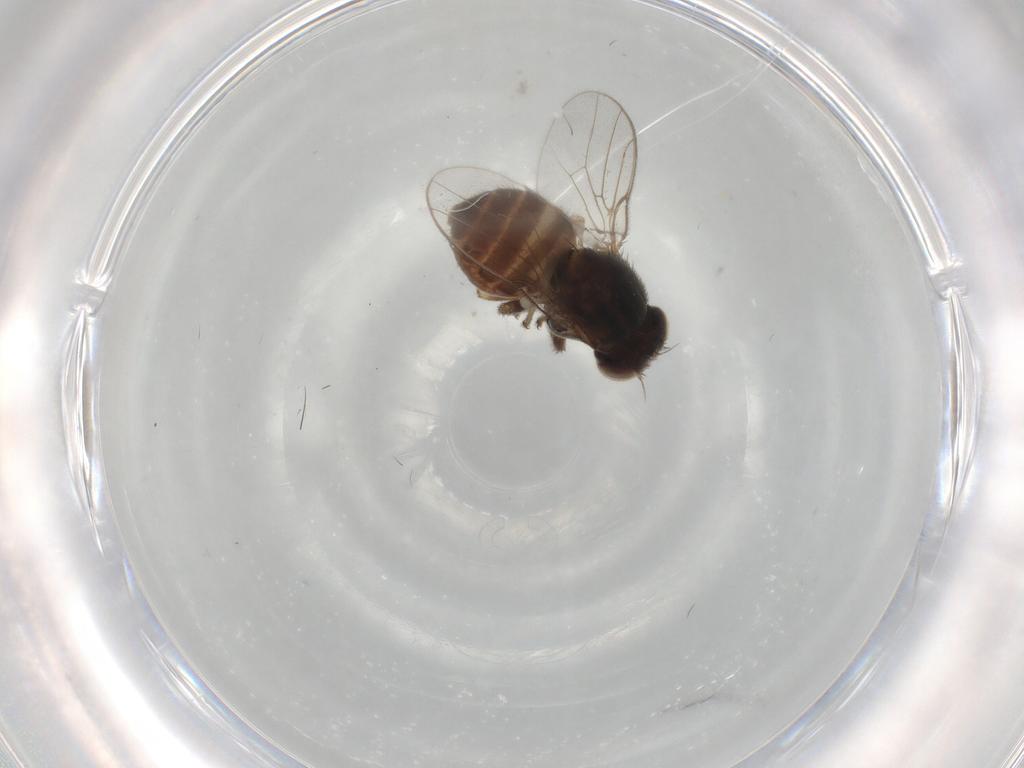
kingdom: Animalia
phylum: Arthropoda
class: Insecta
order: Diptera
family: Chloropidae
